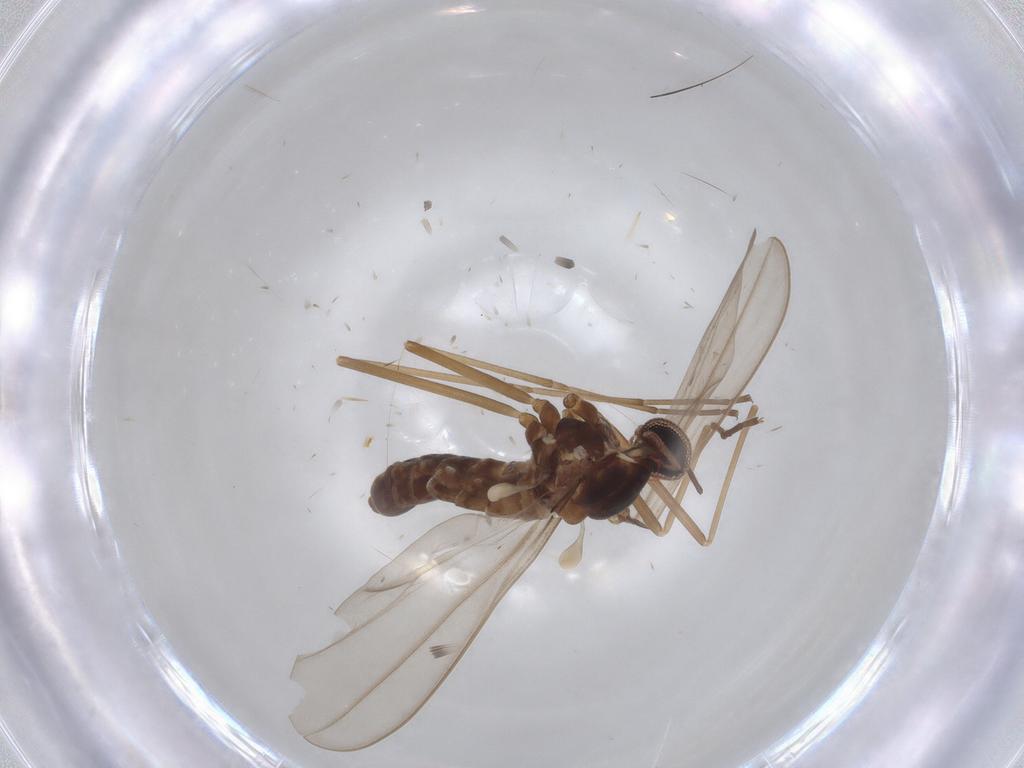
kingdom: Animalia
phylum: Arthropoda
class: Insecta
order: Diptera
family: Cecidomyiidae
